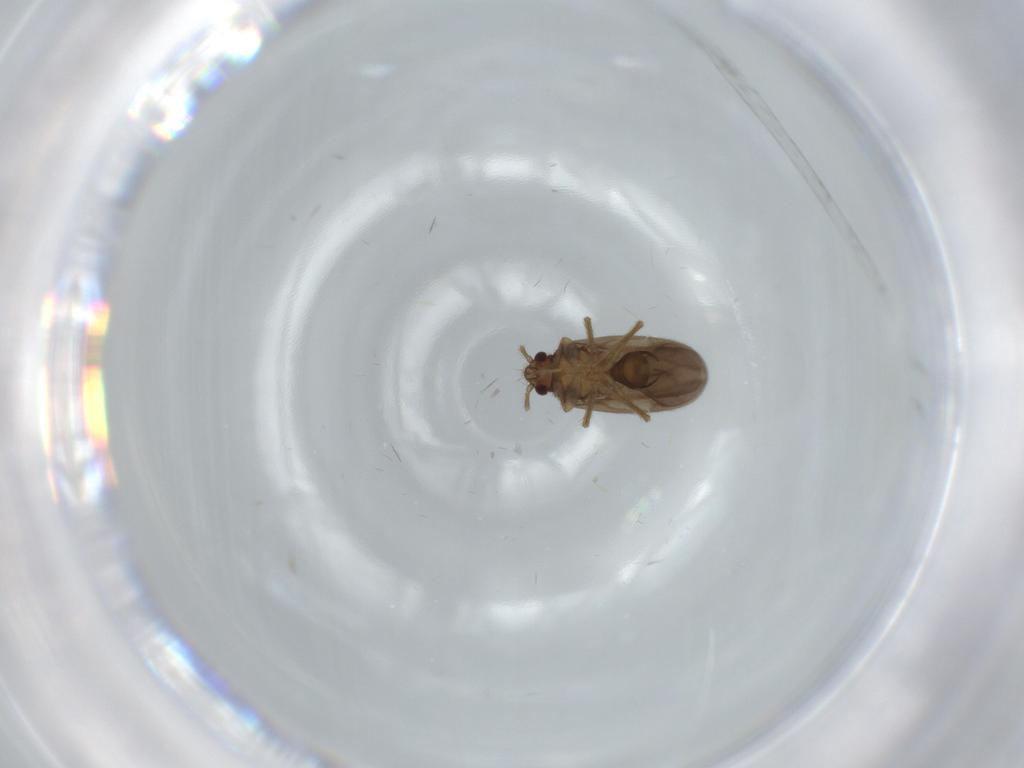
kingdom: Animalia
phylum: Arthropoda
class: Insecta
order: Hemiptera
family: Ceratocombidae
